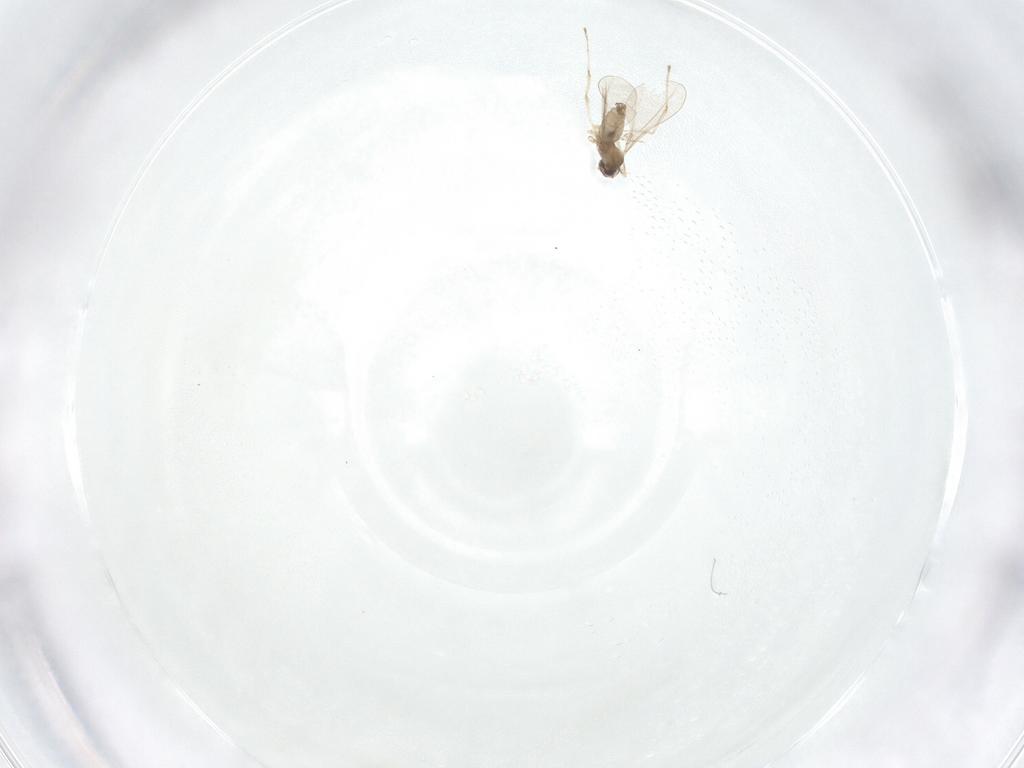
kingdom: Animalia
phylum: Arthropoda
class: Insecta
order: Diptera
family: Cecidomyiidae
